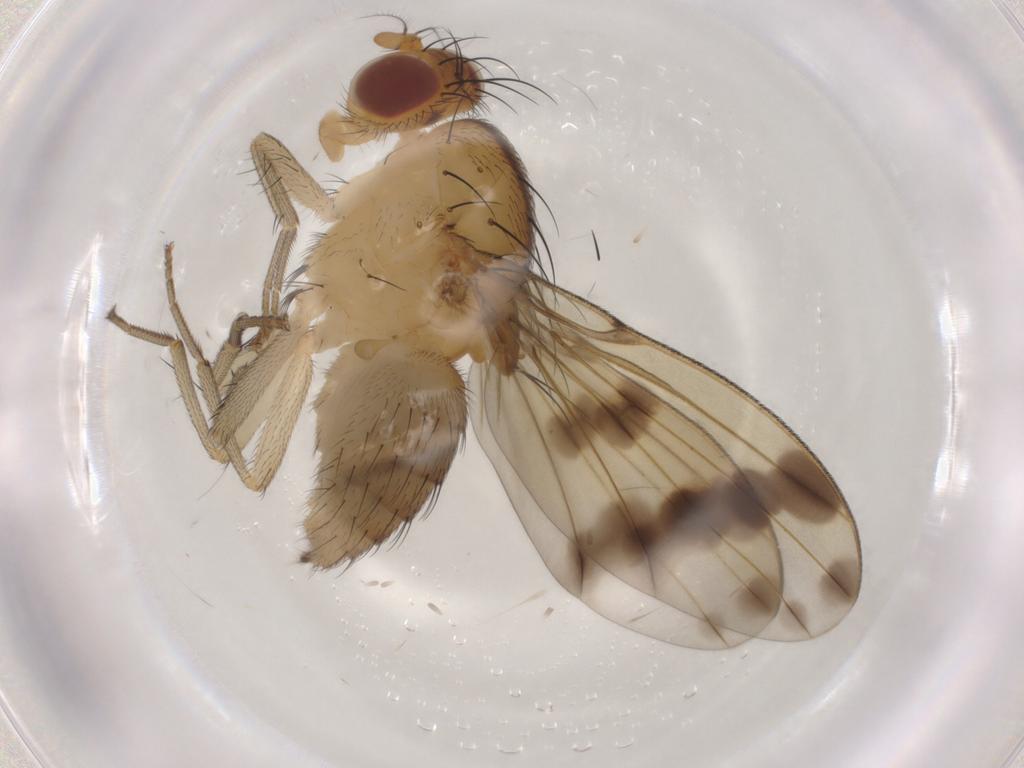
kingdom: Animalia
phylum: Arthropoda
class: Insecta
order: Diptera
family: Lauxaniidae
